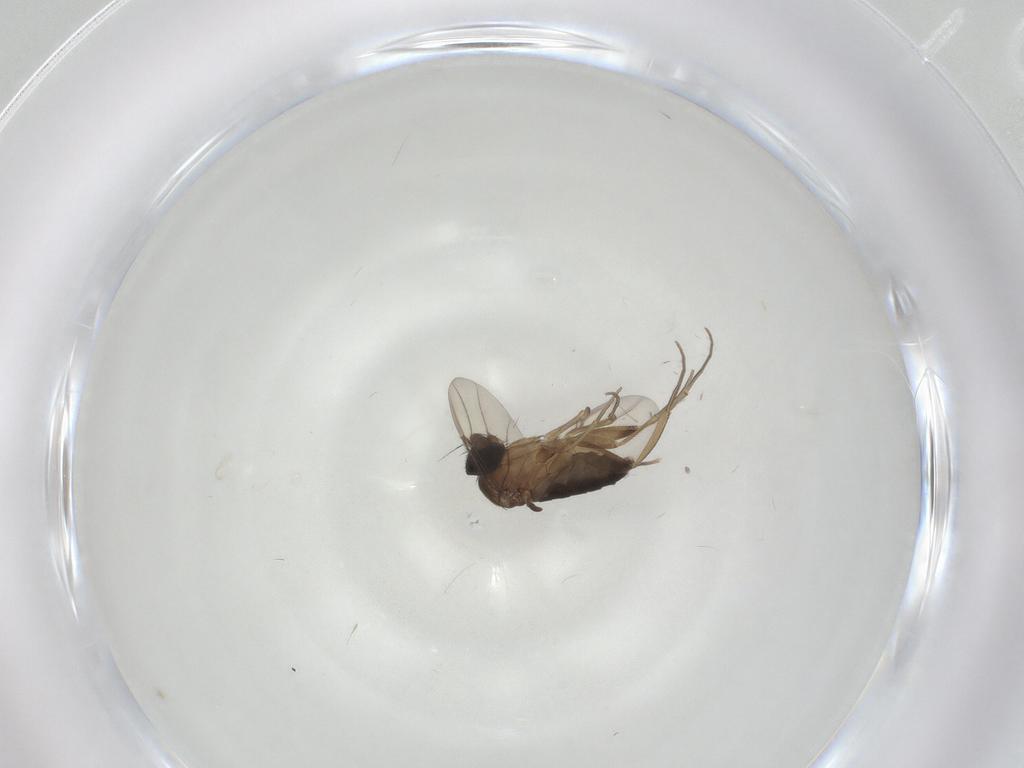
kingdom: Animalia
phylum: Arthropoda
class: Insecta
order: Diptera
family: Phoridae
